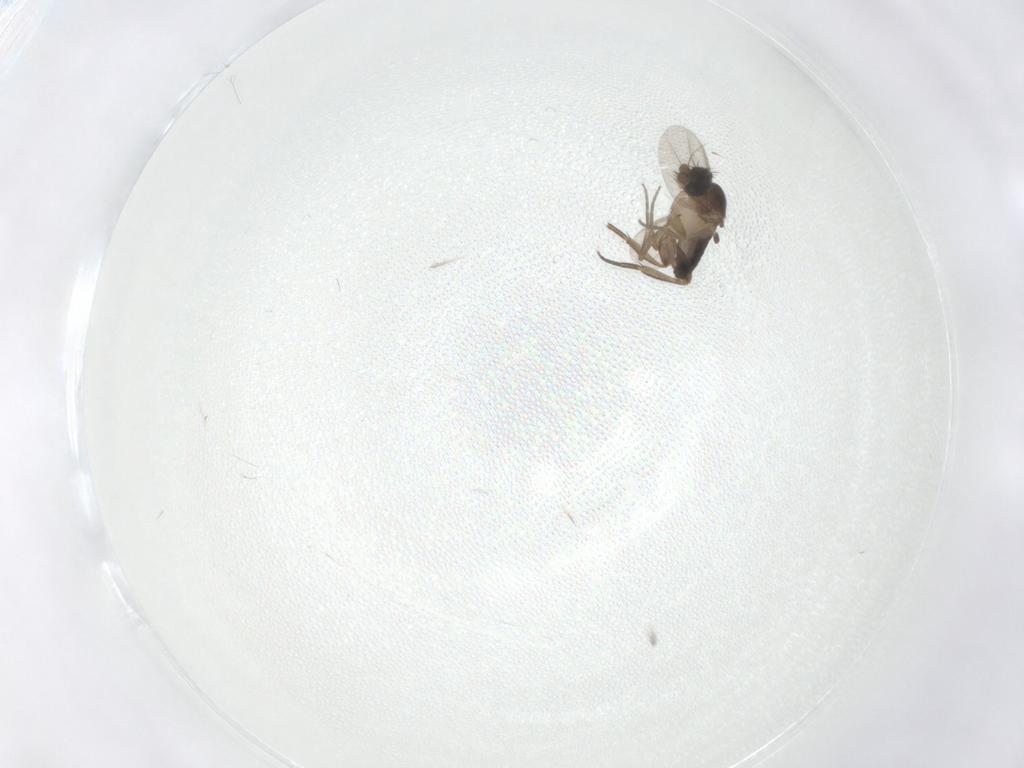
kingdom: Animalia
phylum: Arthropoda
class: Insecta
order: Diptera
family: Phoridae
